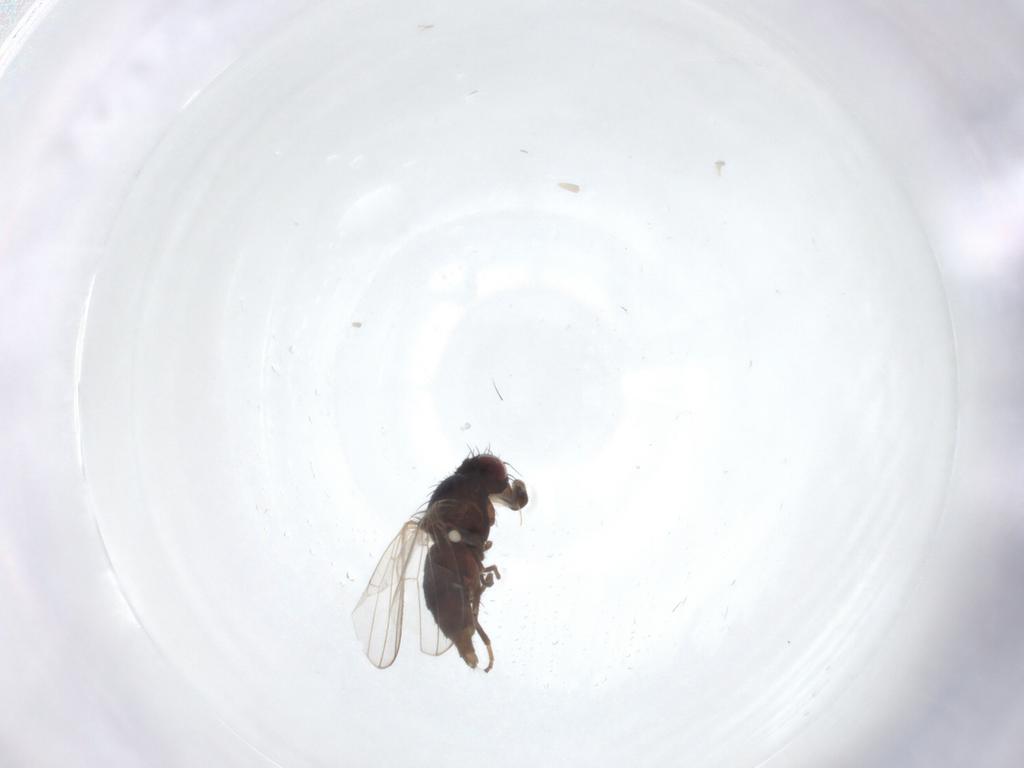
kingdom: Animalia
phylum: Arthropoda
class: Insecta
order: Diptera
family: Carnidae
